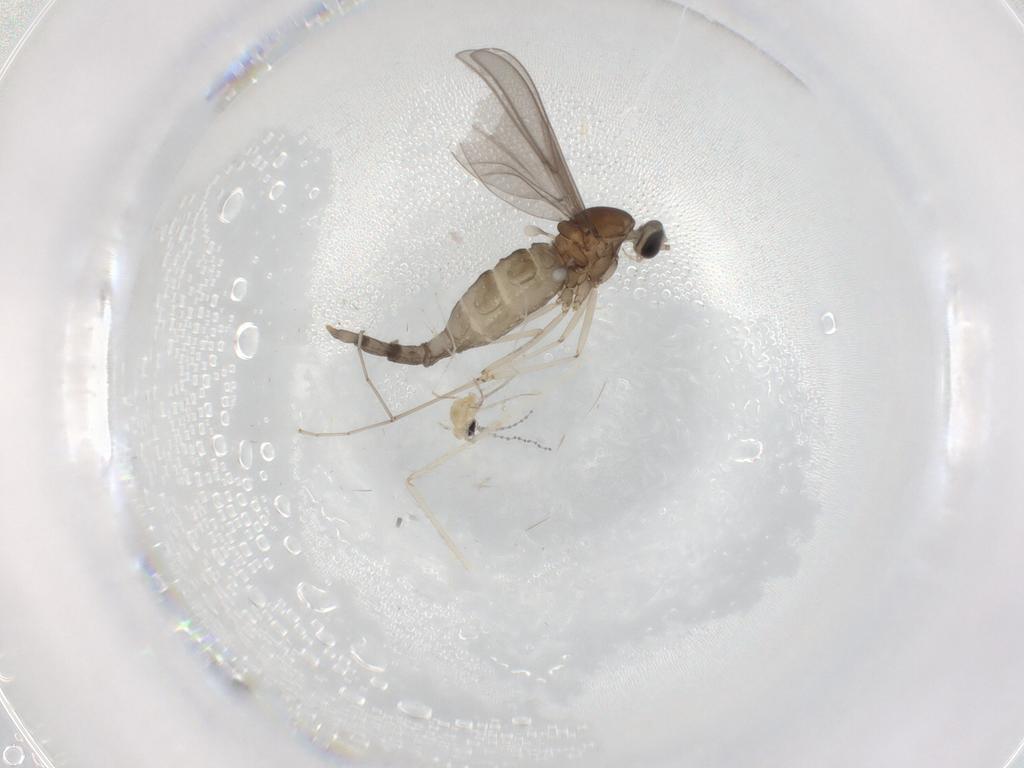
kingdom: Animalia
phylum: Arthropoda
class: Insecta
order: Diptera
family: Cecidomyiidae
